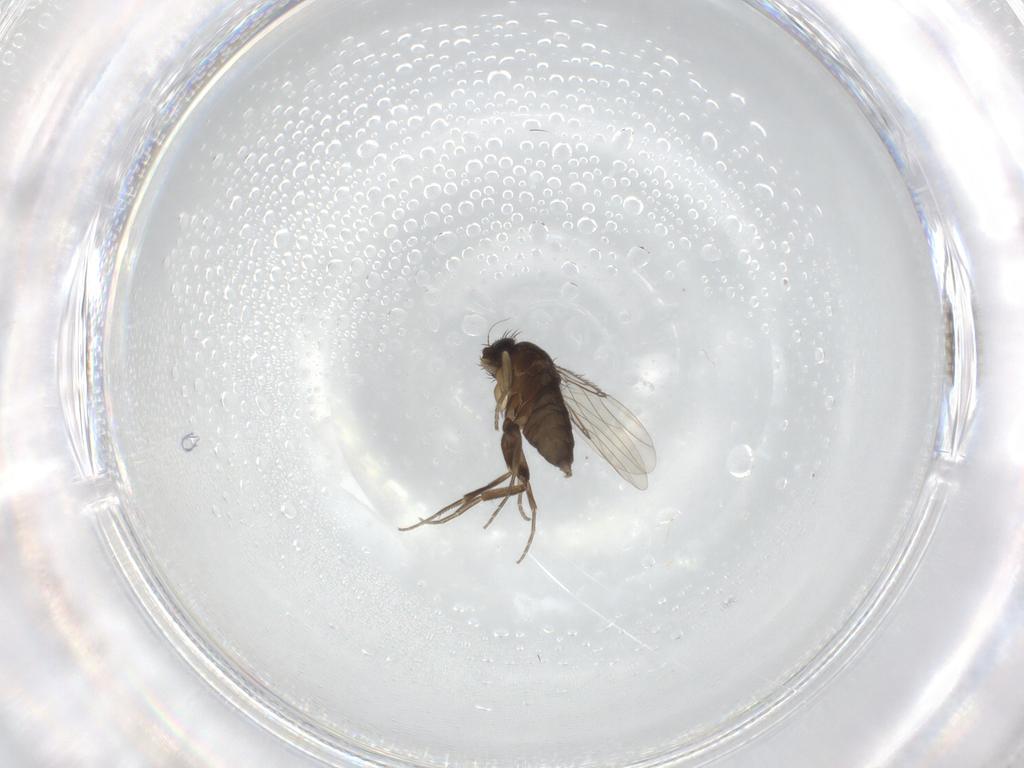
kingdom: Animalia
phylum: Arthropoda
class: Insecta
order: Diptera
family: Phoridae
